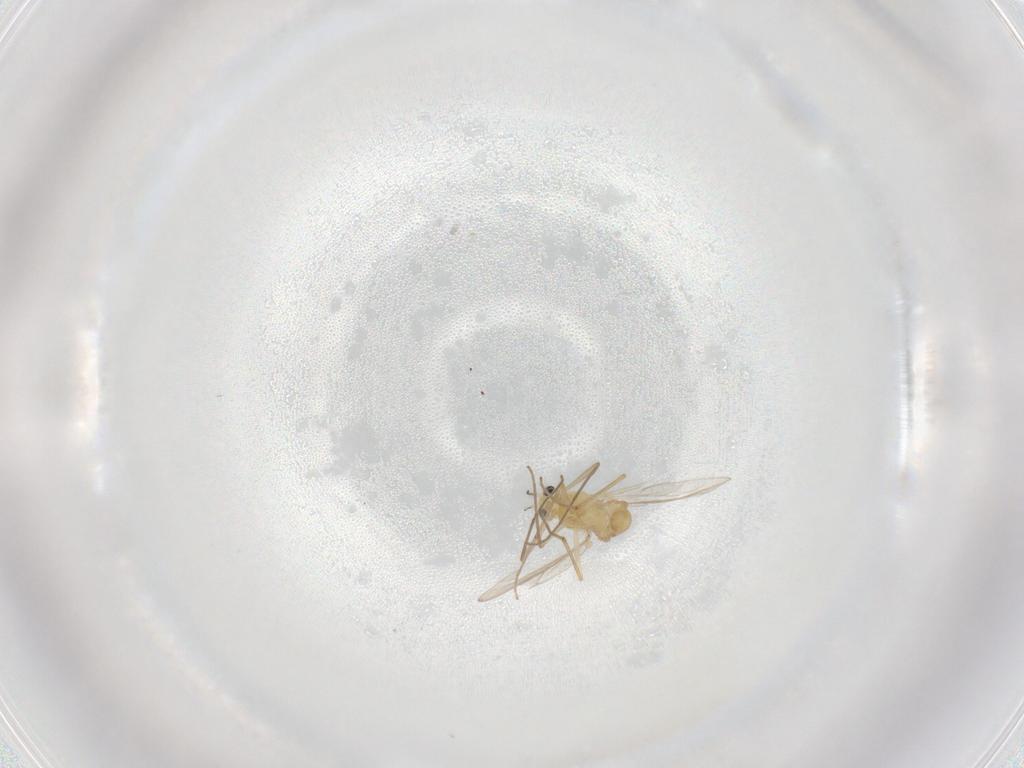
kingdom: Animalia
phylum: Arthropoda
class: Insecta
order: Diptera
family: Chironomidae
